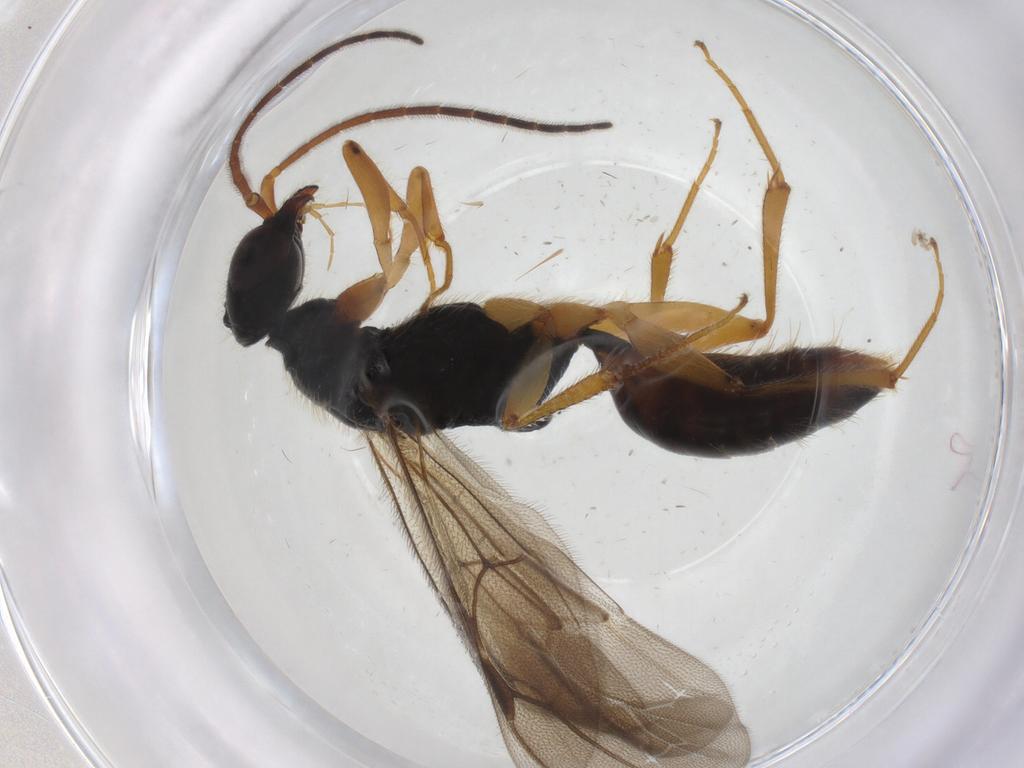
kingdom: Animalia
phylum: Arthropoda
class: Insecta
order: Hymenoptera
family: Bethylidae
